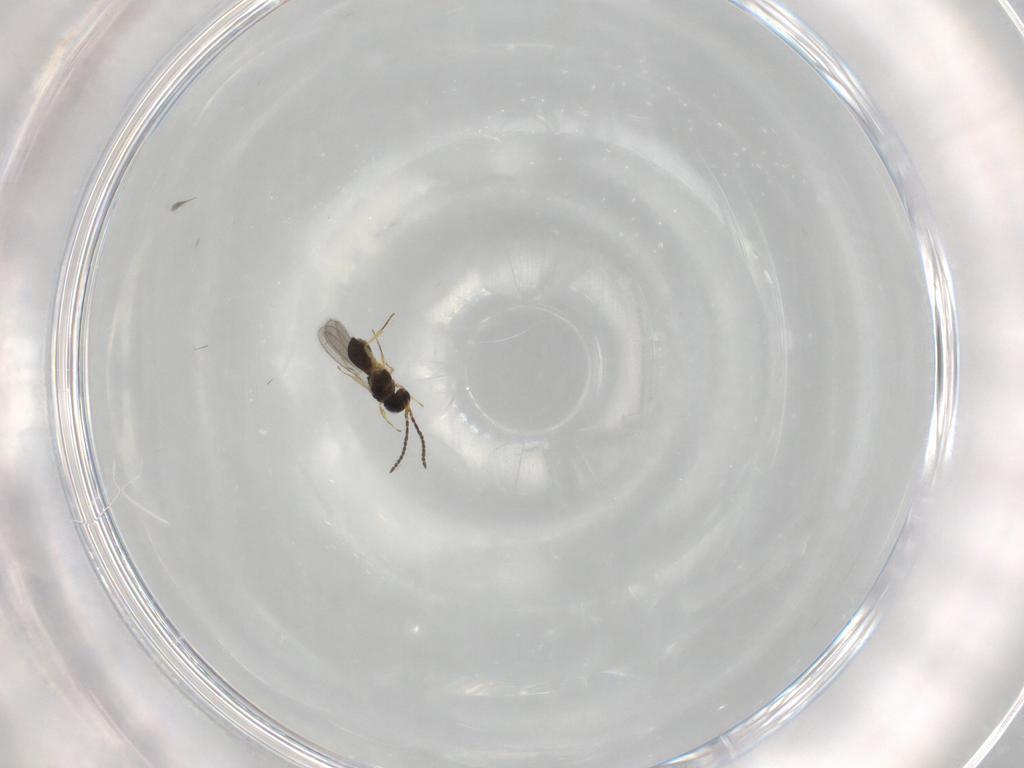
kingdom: Animalia
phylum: Arthropoda
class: Insecta
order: Hymenoptera
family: Scelionidae
